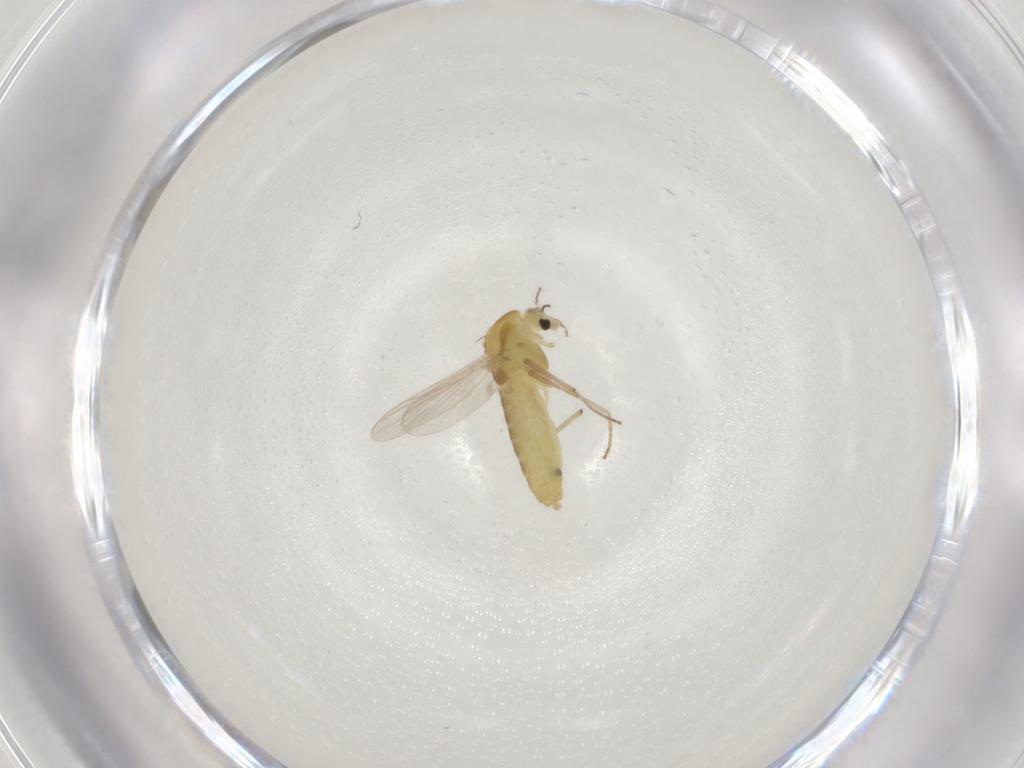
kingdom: Animalia
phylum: Arthropoda
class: Insecta
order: Diptera
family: Chironomidae
